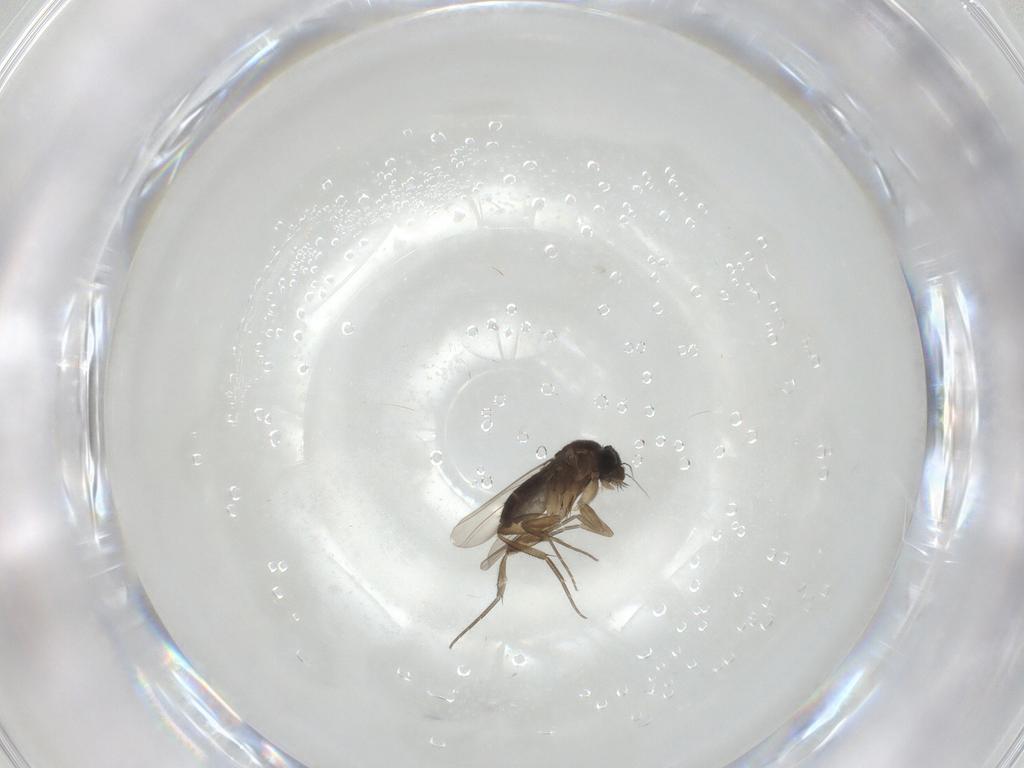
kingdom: Animalia
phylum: Arthropoda
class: Insecta
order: Diptera
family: Phoridae
